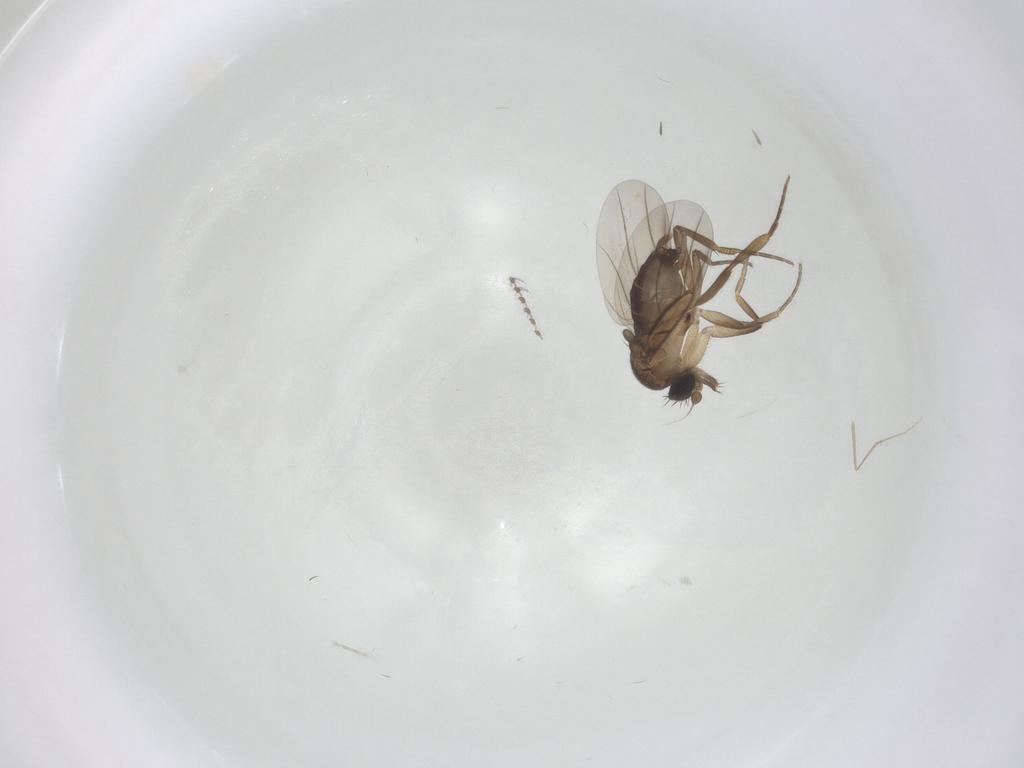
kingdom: Animalia
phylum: Arthropoda
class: Insecta
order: Diptera
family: Phoridae
